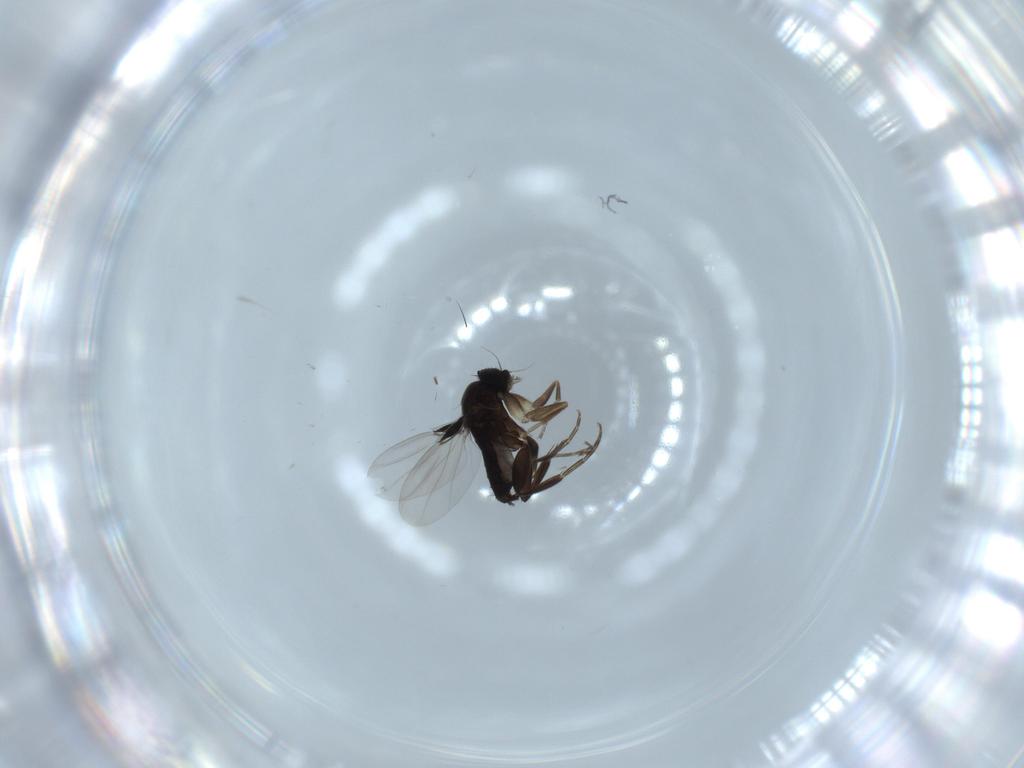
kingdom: Animalia
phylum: Arthropoda
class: Insecta
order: Diptera
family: Phoridae
